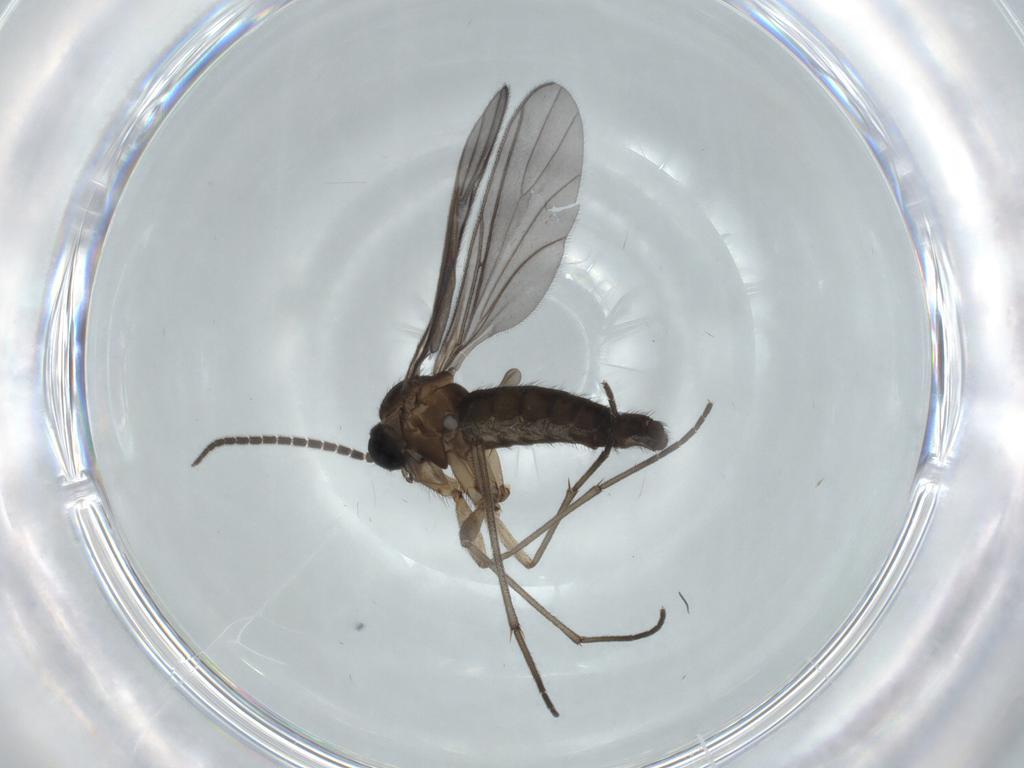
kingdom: Animalia
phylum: Arthropoda
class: Insecta
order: Diptera
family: Sciaridae
